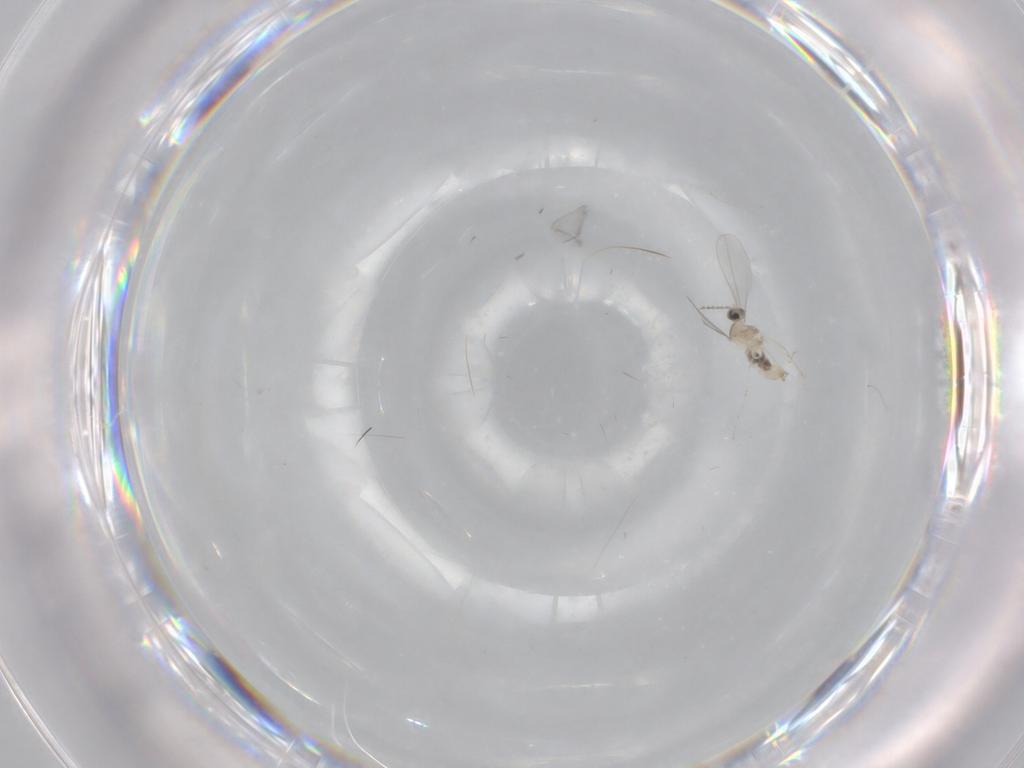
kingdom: Animalia
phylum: Arthropoda
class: Insecta
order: Diptera
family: Cecidomyiidae
